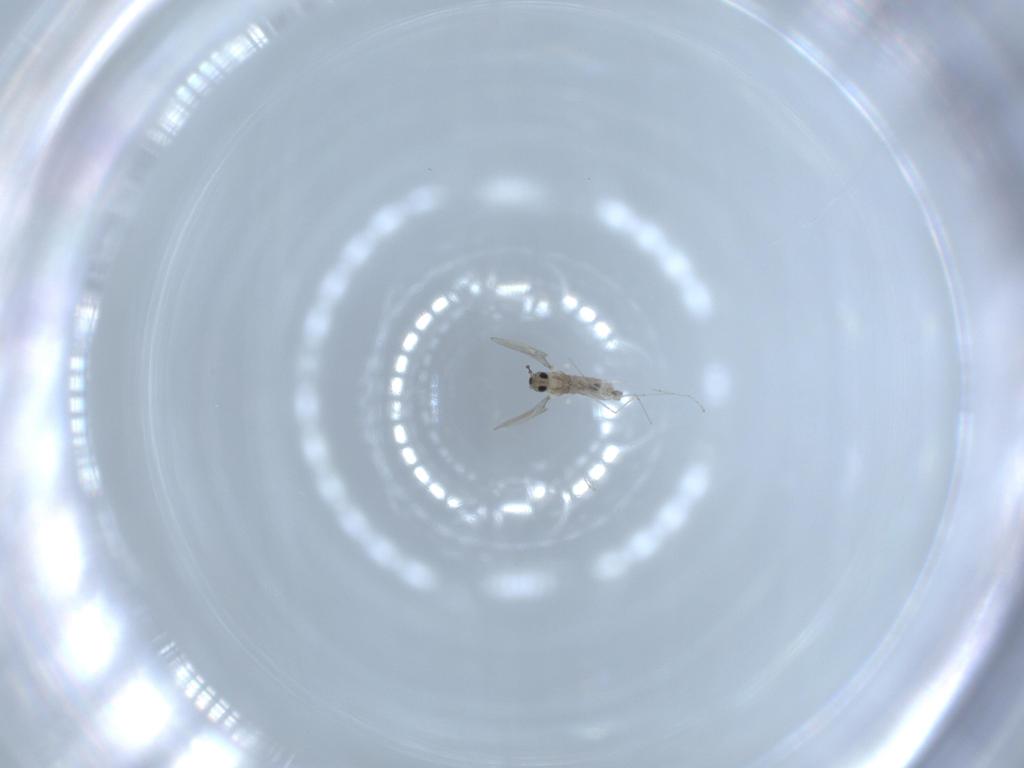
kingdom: Animalia
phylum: Arthropoda
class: Insecta
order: Diptera
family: Cecidomyiidae
